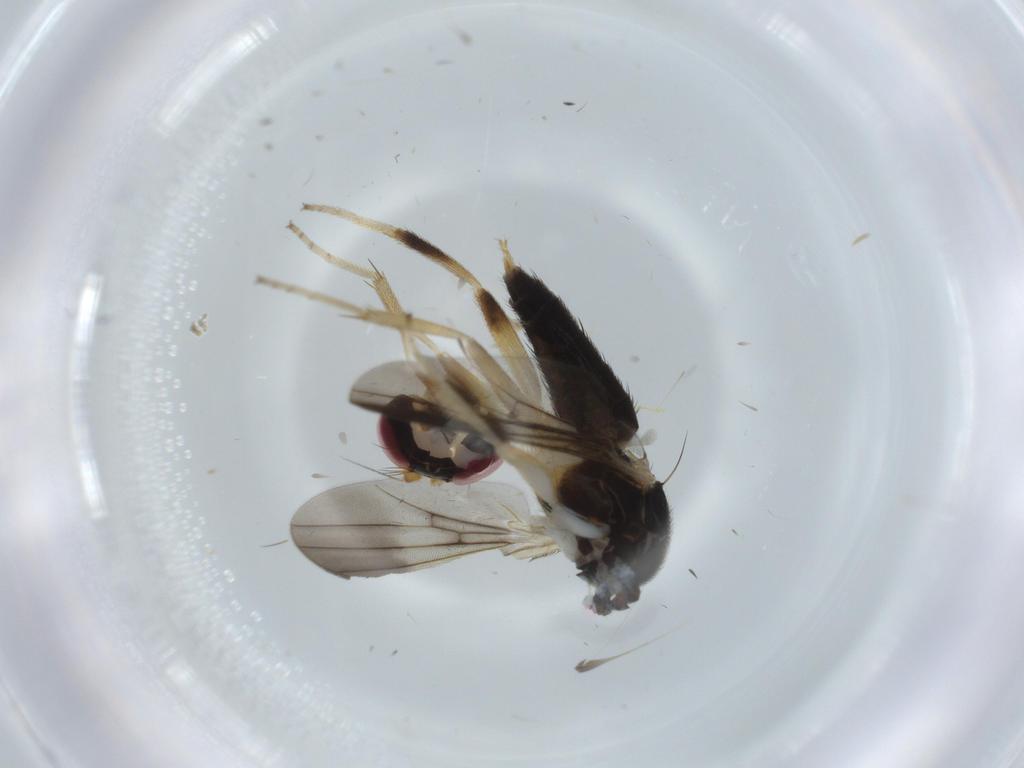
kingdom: Animalia
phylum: Arthropoda
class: Insecta
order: Diptera
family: Clusiidae
